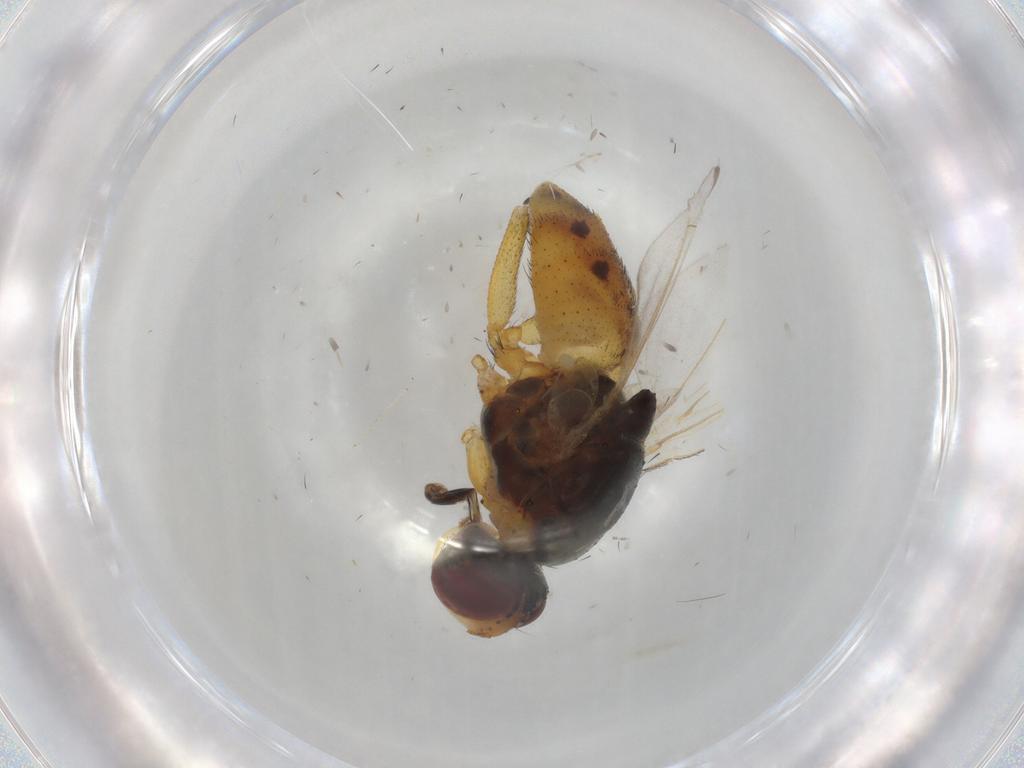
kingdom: Animalia
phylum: Arthropoda
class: Insecta
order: Diptera
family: Muscidae
